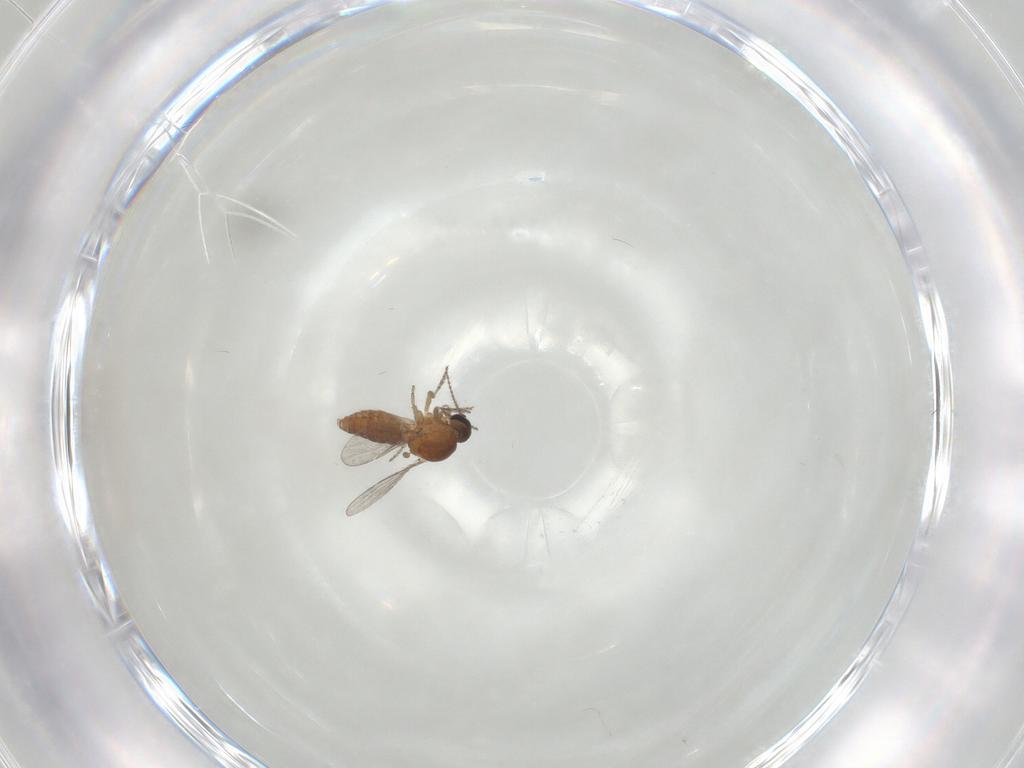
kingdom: Animalia
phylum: Arthropoda
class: Insecta
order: Diptera
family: Ceratopogonidae
